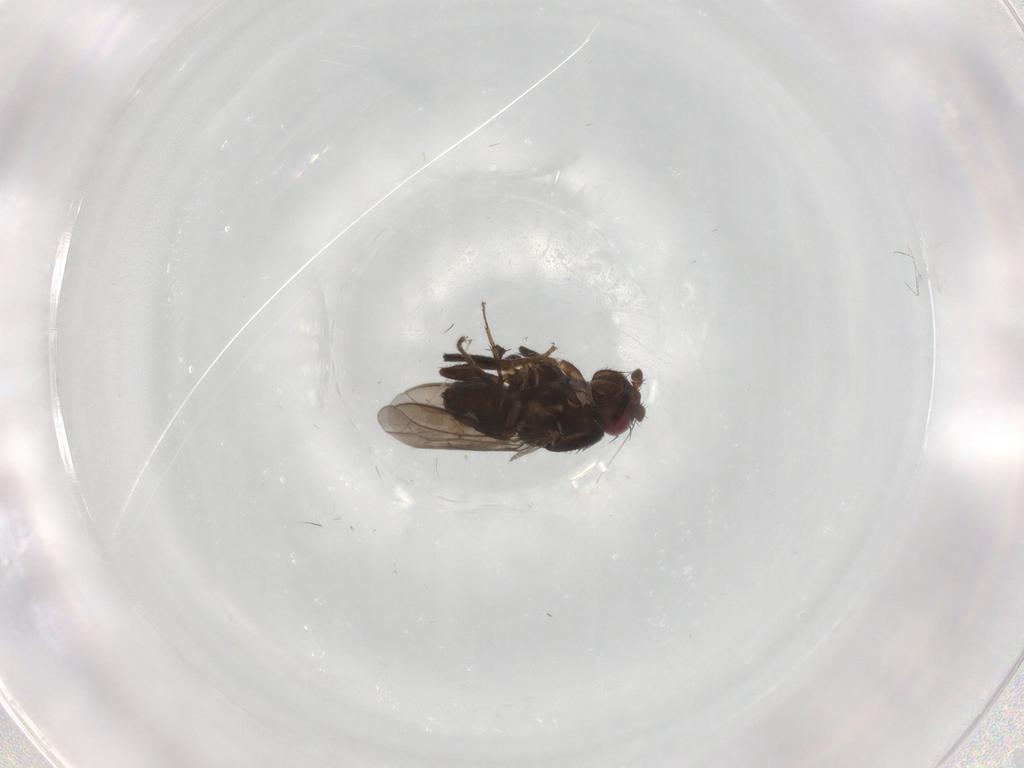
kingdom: Animalia
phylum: Arthropoda
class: Insecta
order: Diptera
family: Sphaeroceridae
